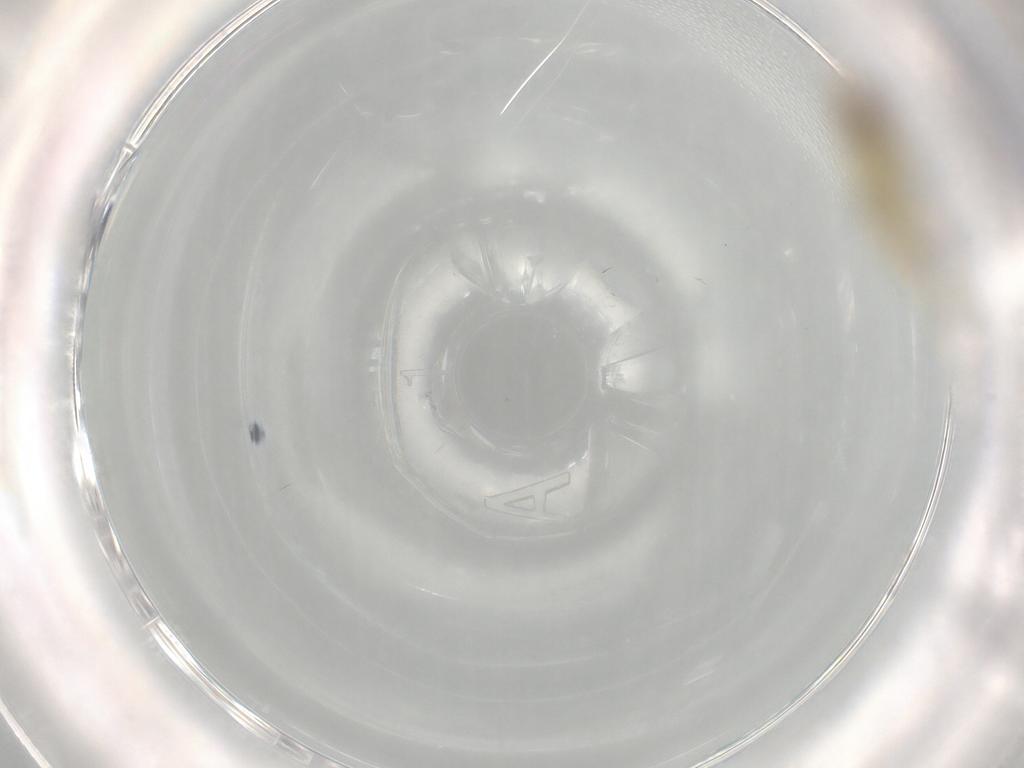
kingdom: Animalia
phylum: Arthropoda
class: Insecta
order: Diptera
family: Chironomidae
